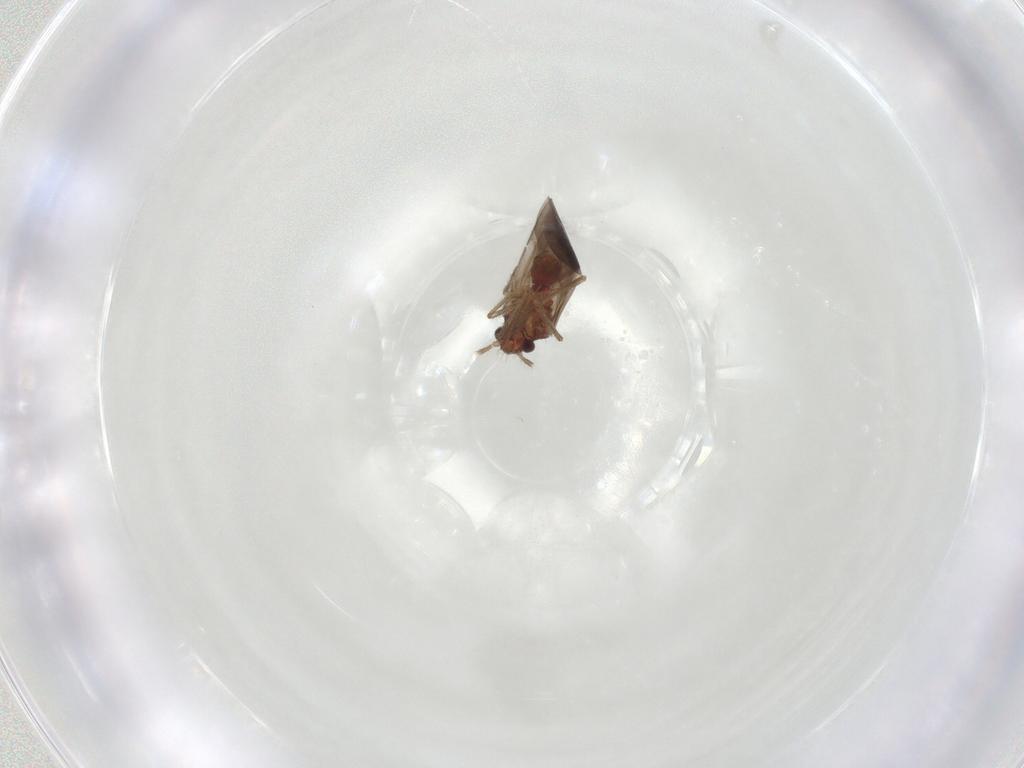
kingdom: Animalia
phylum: Arthropoda
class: Insecta
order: Hemiptera
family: Ceratocombidae
